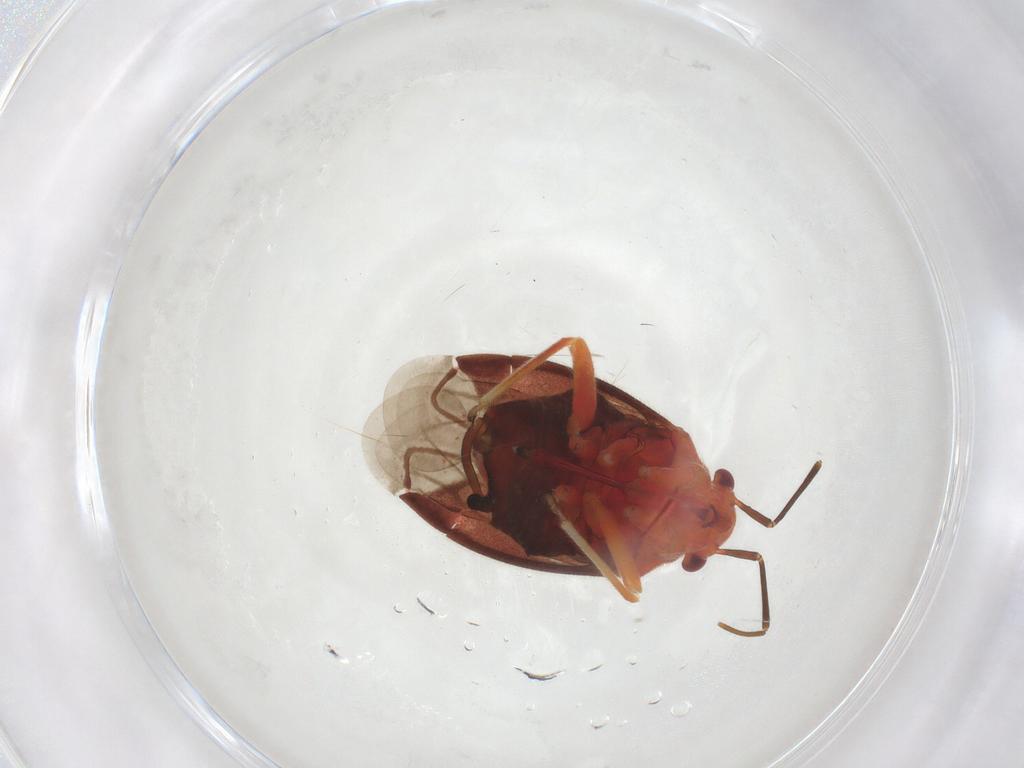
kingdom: Animalia
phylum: Arthropoda
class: Insecta
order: Hemiptera
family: Miridae
